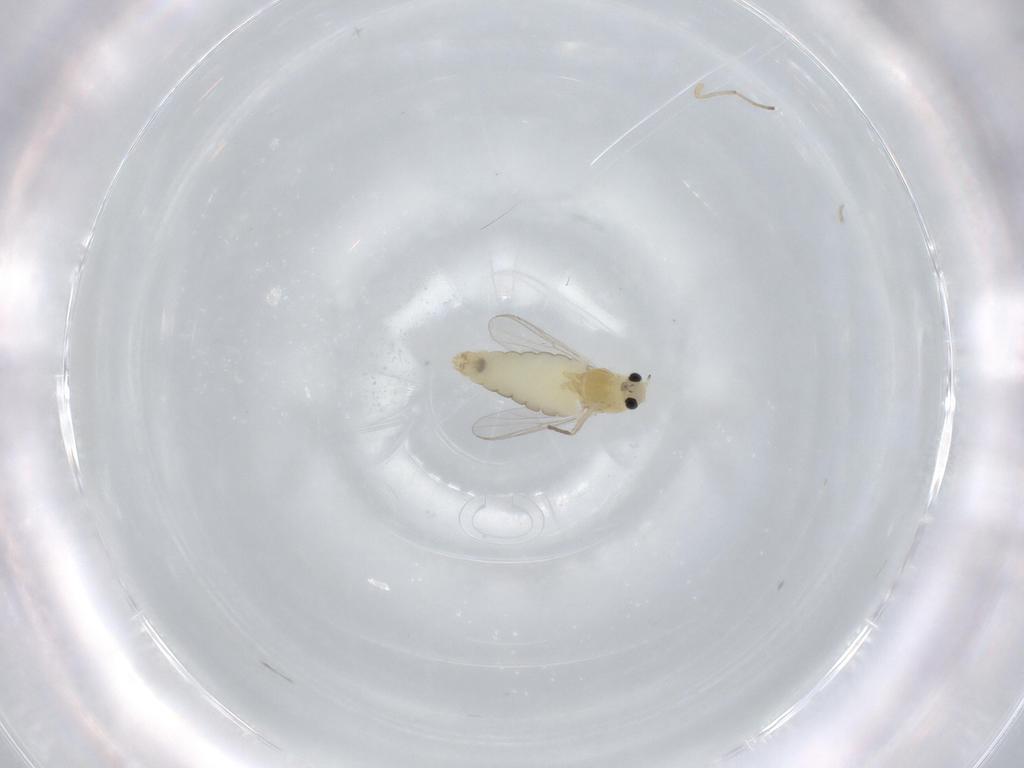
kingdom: Animalia
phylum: Arthropoda
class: Insecta
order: Diptera
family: Chironomidae
